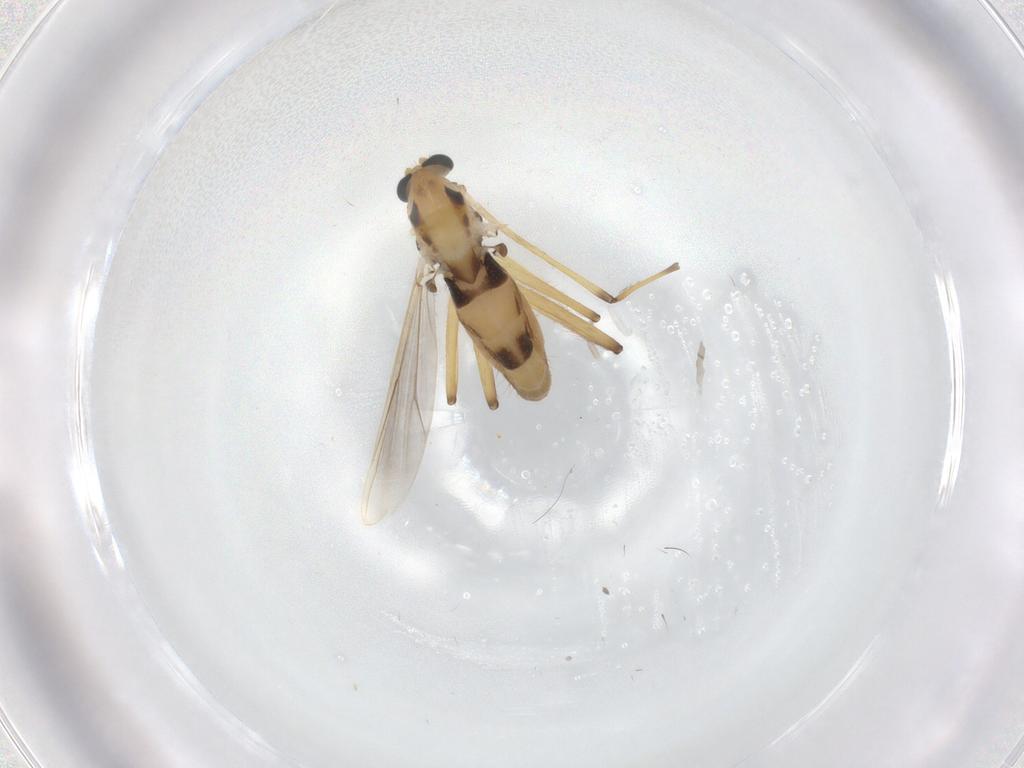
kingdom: Animalia
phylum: Arthropoda
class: Insecta
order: Diptera
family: Chironomidae
